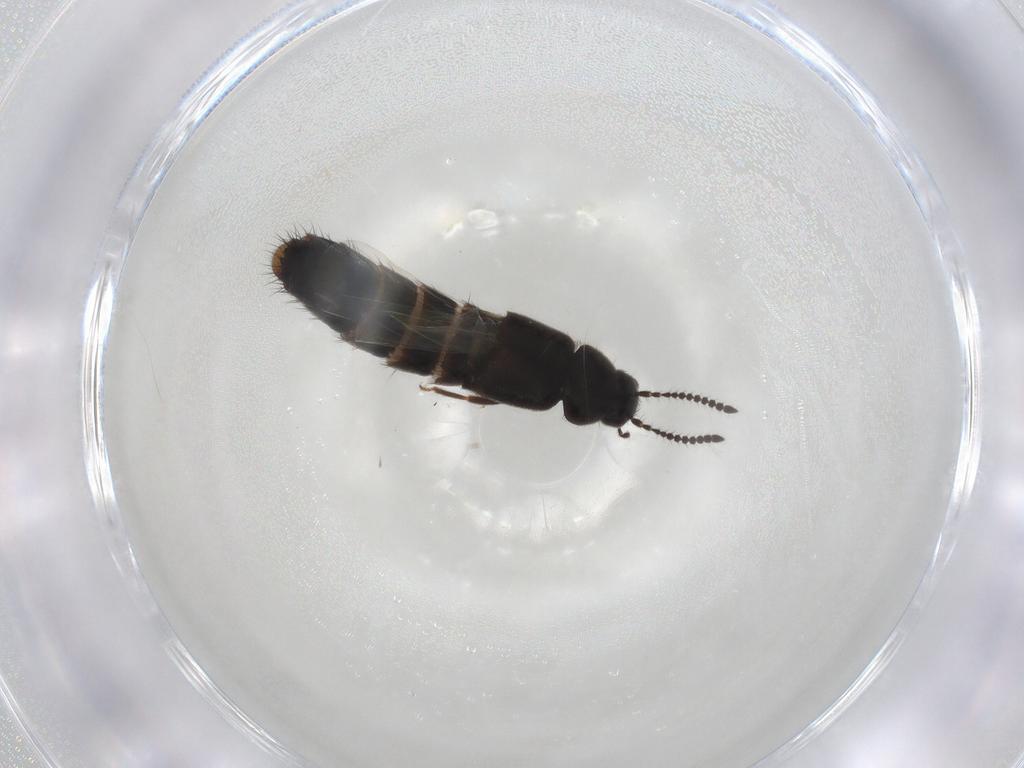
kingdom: Animalia
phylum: Arthropoda
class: Insecta
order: Coleoptera
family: Staphylinidae
